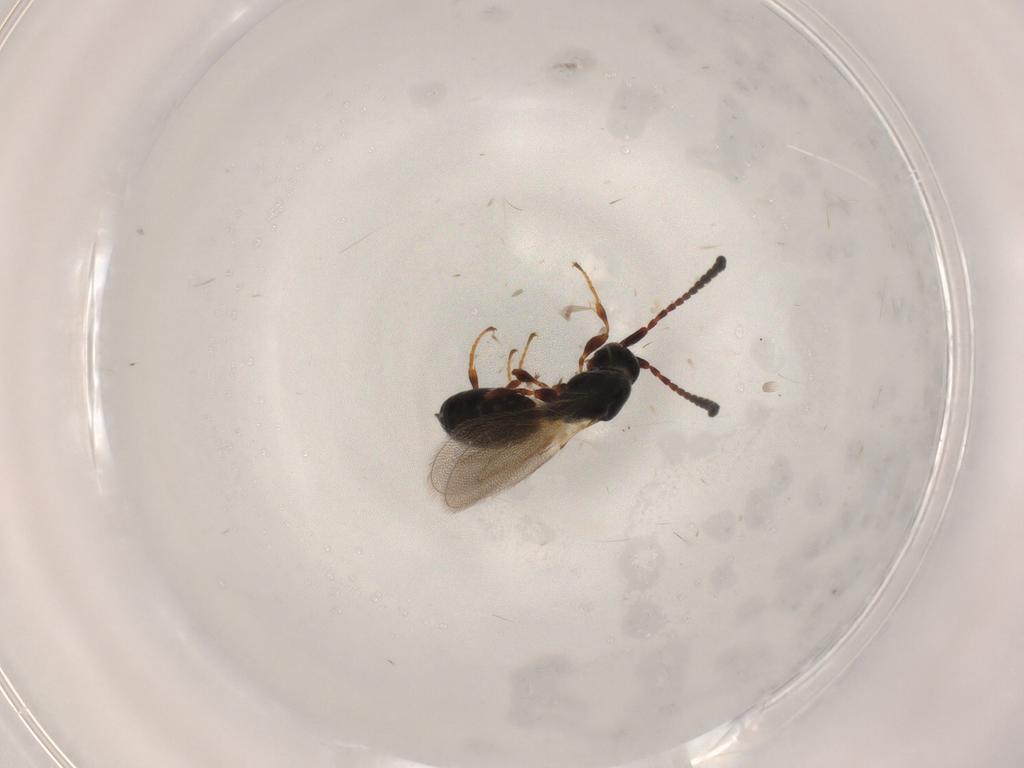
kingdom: Animalia
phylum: Arthropoda
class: Insecta
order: Hymenoptera
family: Diapriidae
